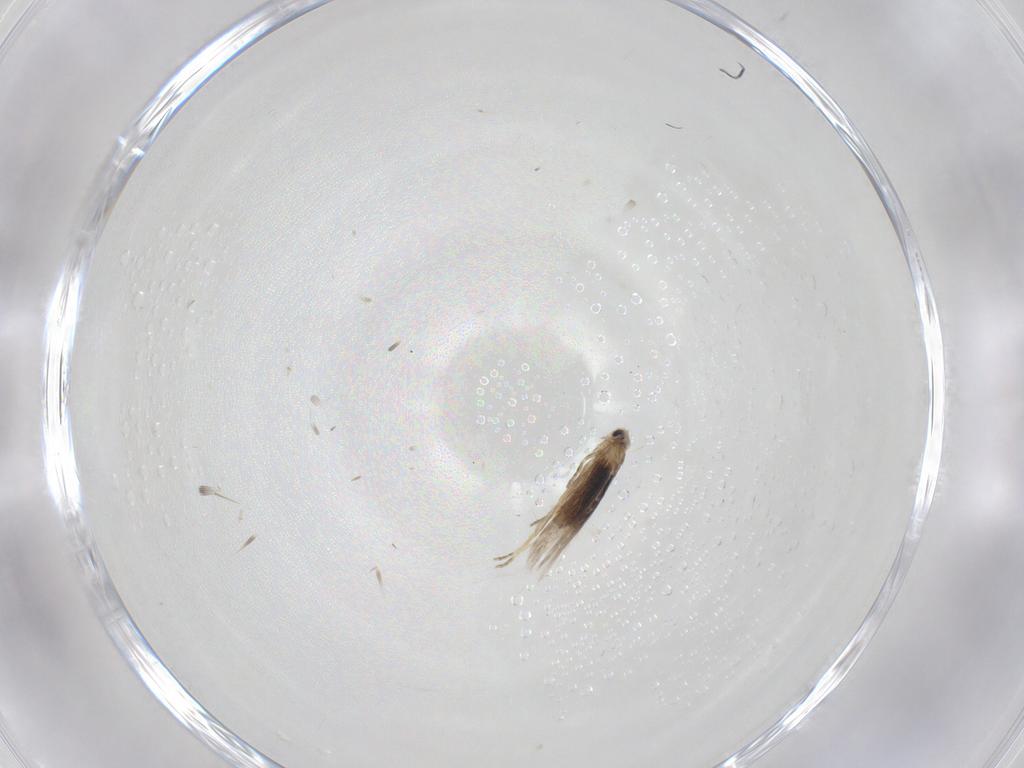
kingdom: Animalia
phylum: Arthropoda
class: Insecta
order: Lepidoptera
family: Nepticulidae
